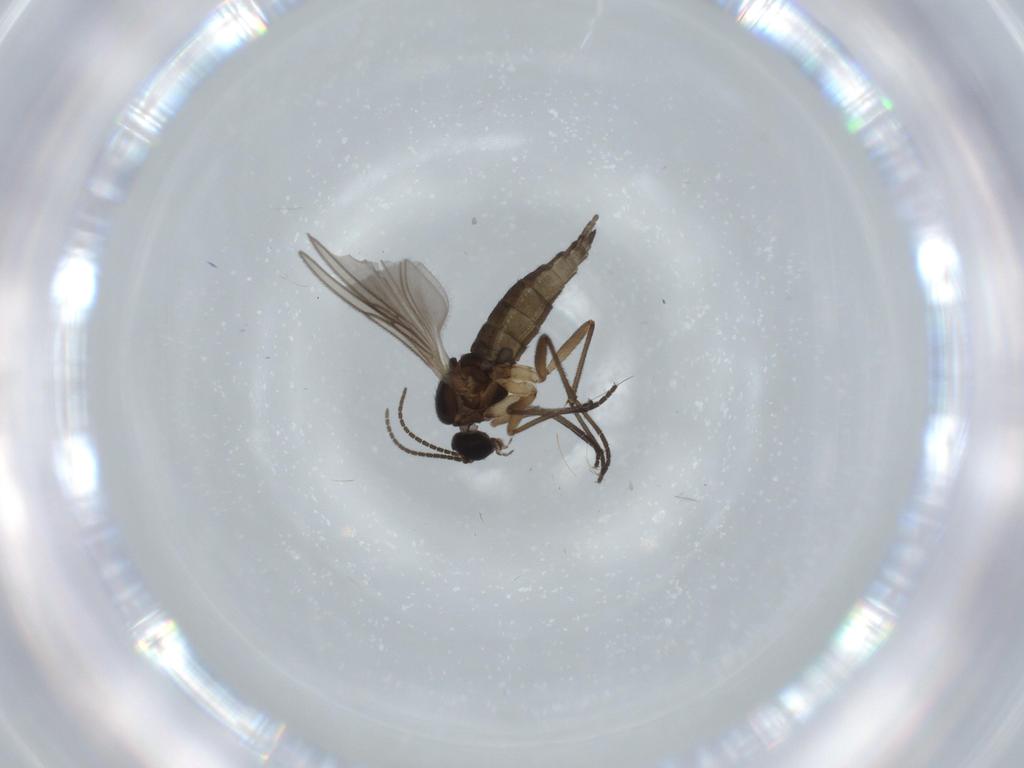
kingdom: Animalia
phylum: Arthropoda
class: Insecta
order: Diptera
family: Sciaridae
